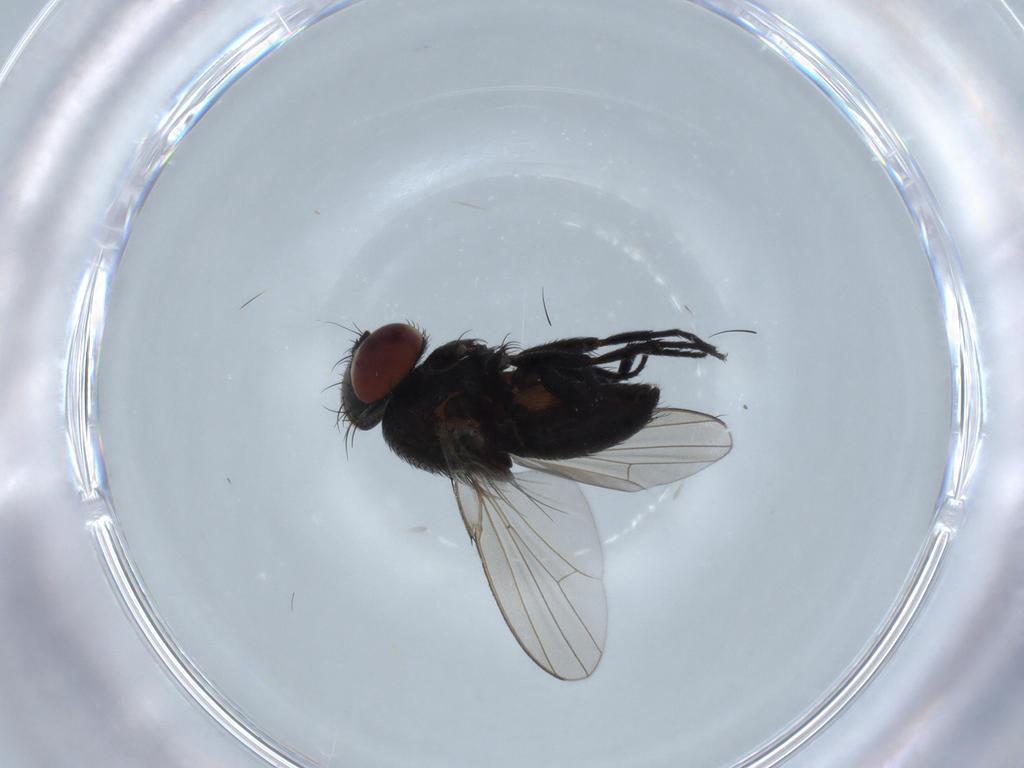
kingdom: Animalia
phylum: Arthropoda
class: Insecta
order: Diptera
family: Milichiidae
